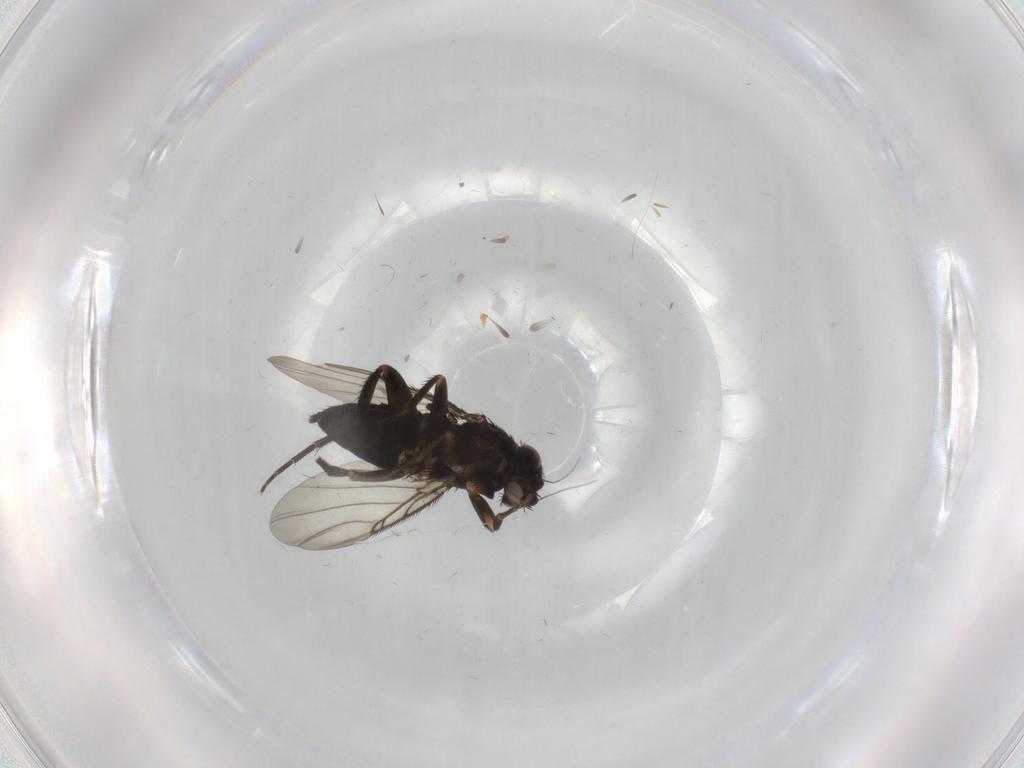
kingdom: Animalia
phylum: Arthropoda
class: Insecta
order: Diptera
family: Phoridae
